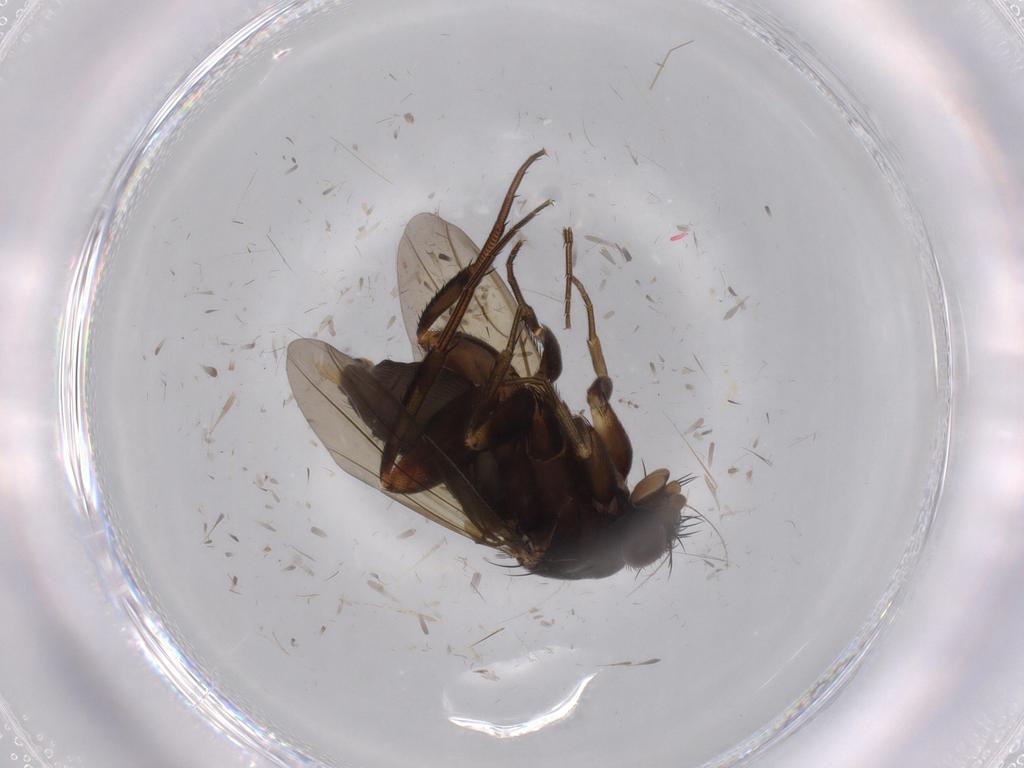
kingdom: Animalia
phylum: Arthropoda
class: Insecta
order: Diptera
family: Phoridae
